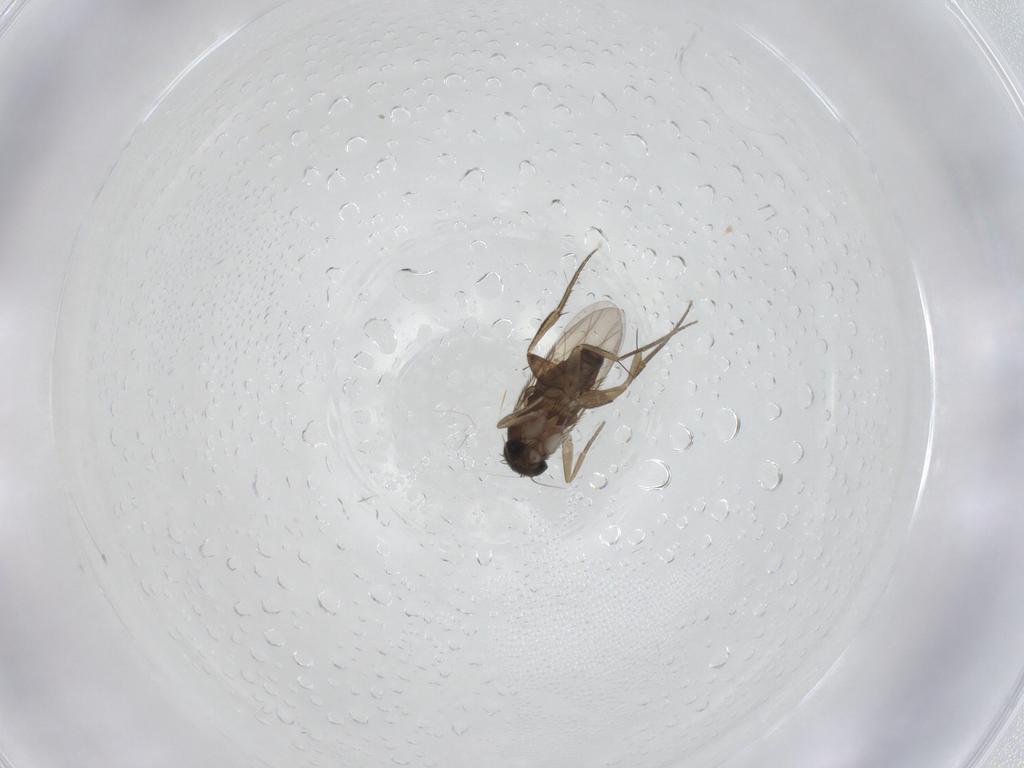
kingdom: Animalia
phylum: Arthropoda
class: Insecta
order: Diptera
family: Phoridae
